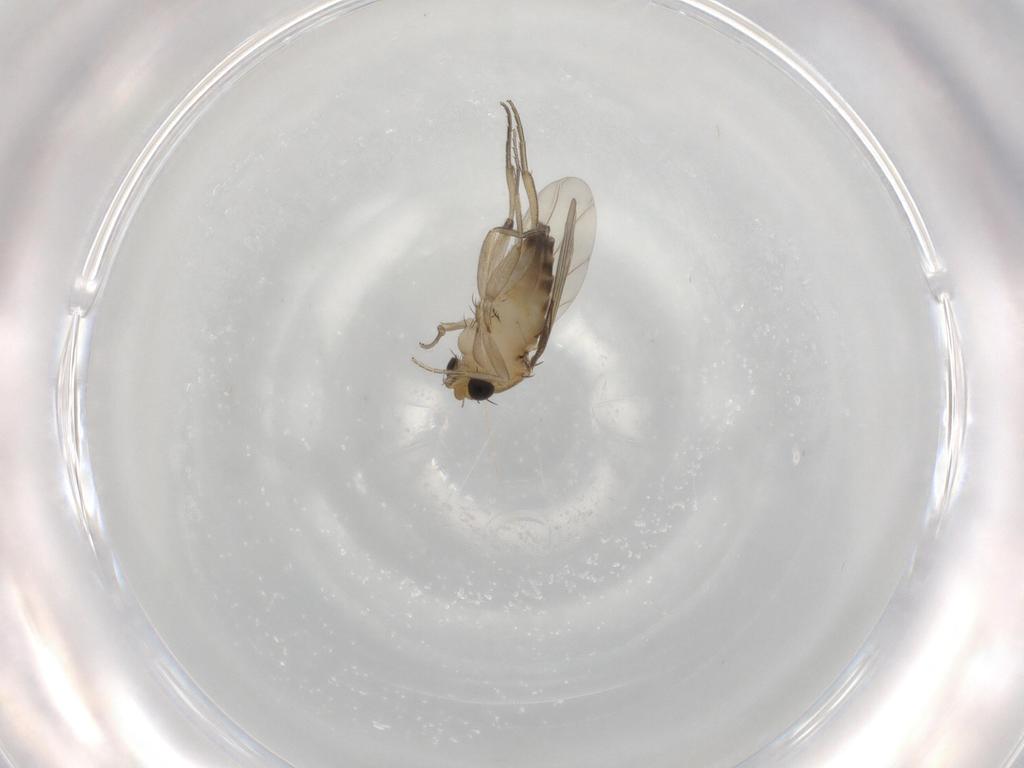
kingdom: Animalia
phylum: Arthropoda
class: Insecta
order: Diptera
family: Phoridae
